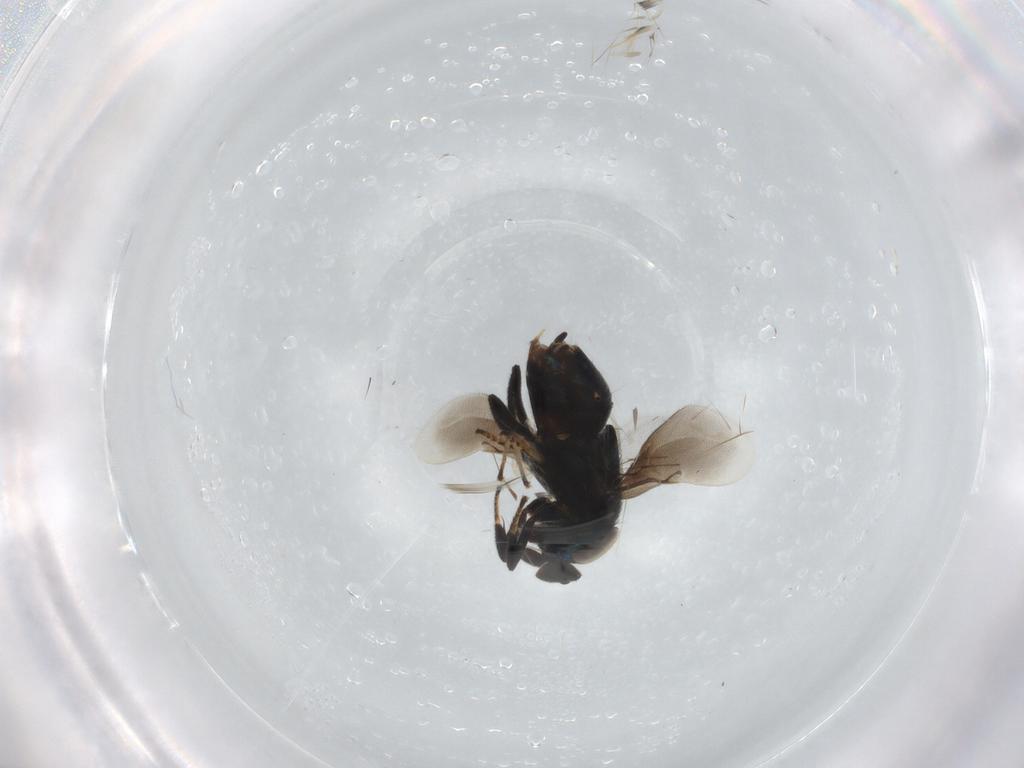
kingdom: Animalia
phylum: Arthropoda
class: Insecta
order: Hymenoptera
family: Encyrtidae
